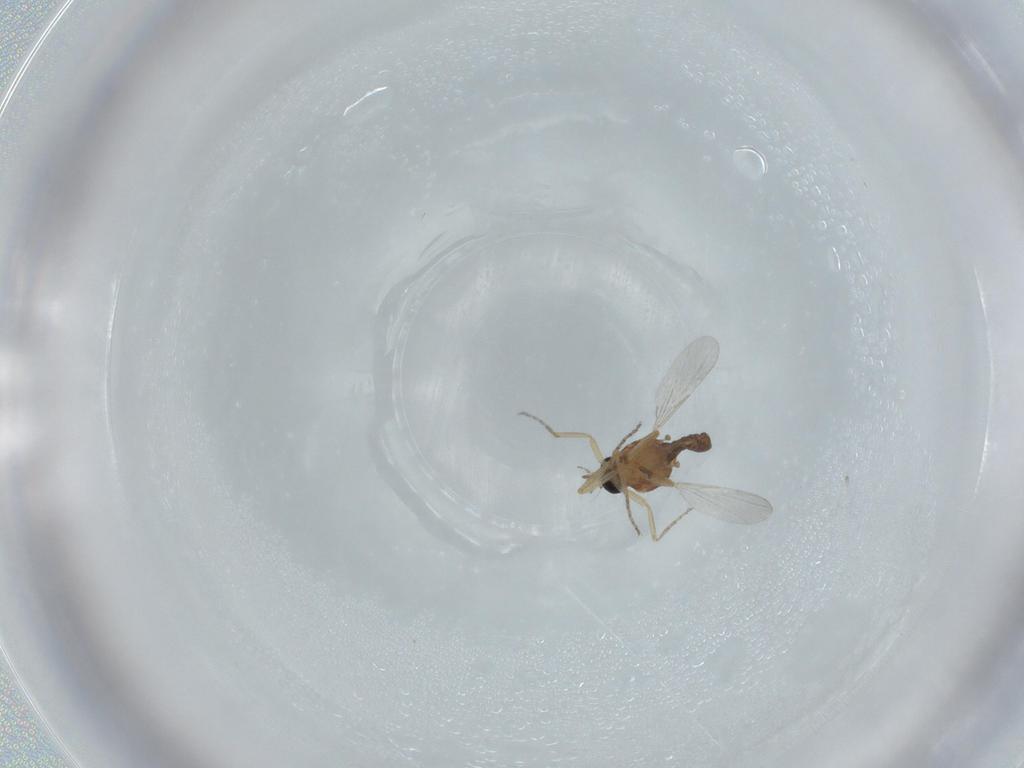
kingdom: Animalia
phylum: Arthropoda
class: Insecta
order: Diptera
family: Ceratopogonidae
